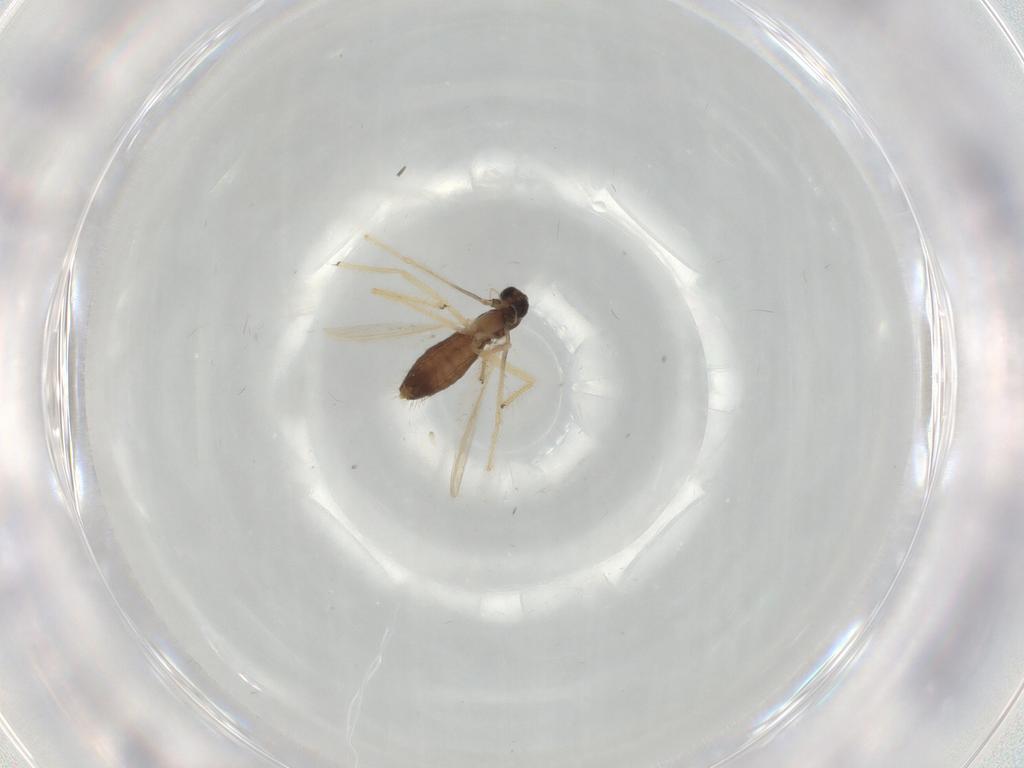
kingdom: Animalia
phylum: Arthropoda
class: Insecta
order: Diptera
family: Chironomidae
